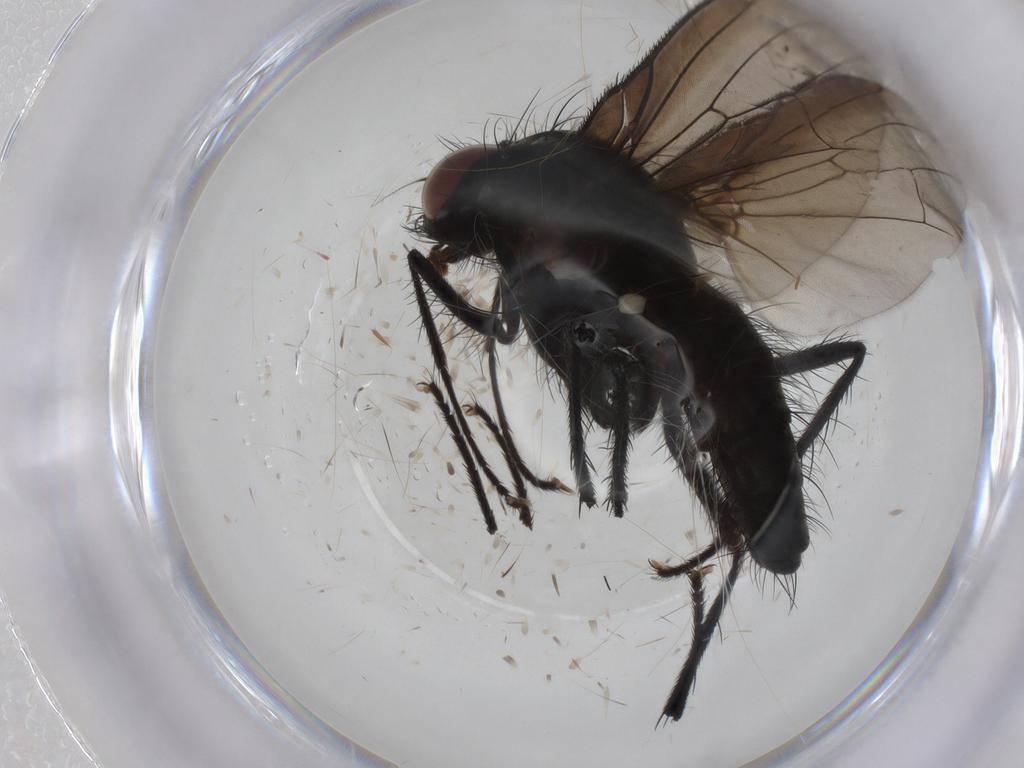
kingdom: Animalia
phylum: Arthropoda
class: Insecta
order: Diptera
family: Anthomyiidae
